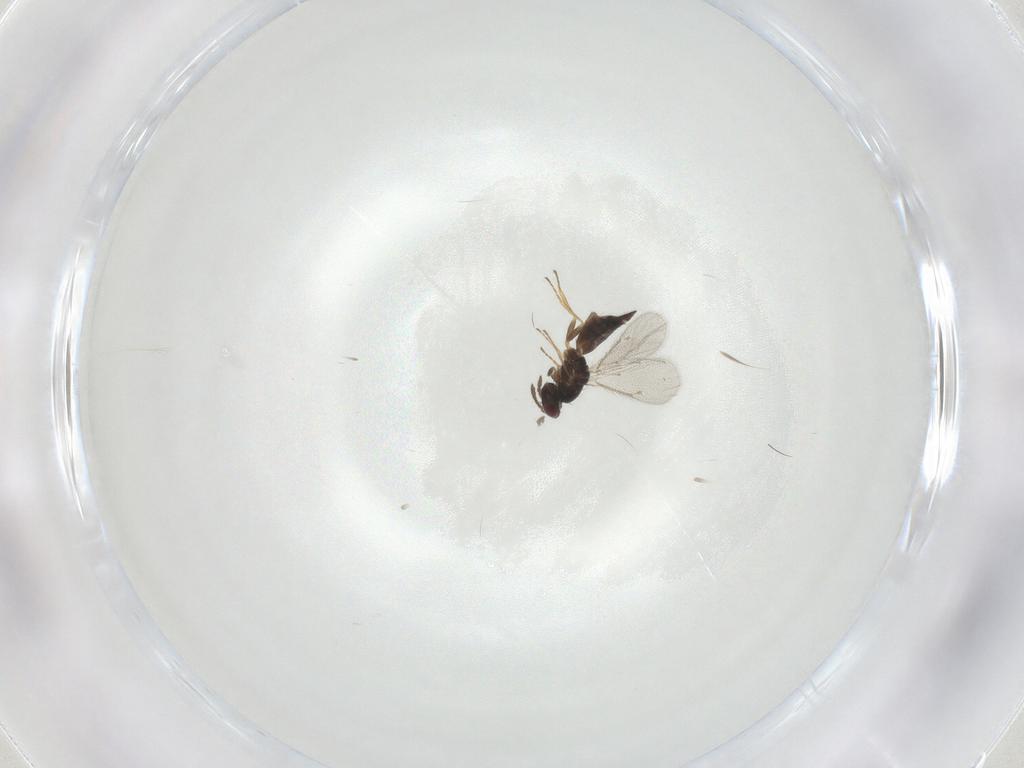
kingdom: Animalia
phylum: Arthropoda
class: Insecta
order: Hymenoptera
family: Eulophidae
